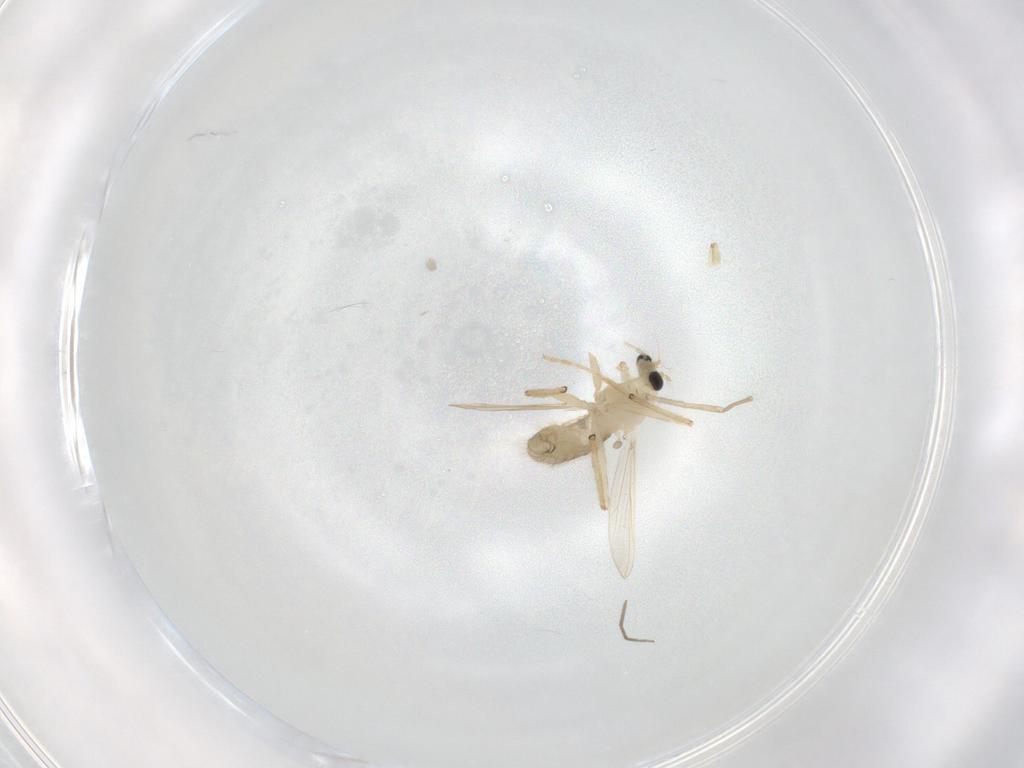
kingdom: Animalia
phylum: Arthropoda
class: Insecta
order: Diptera
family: Chironomidae
